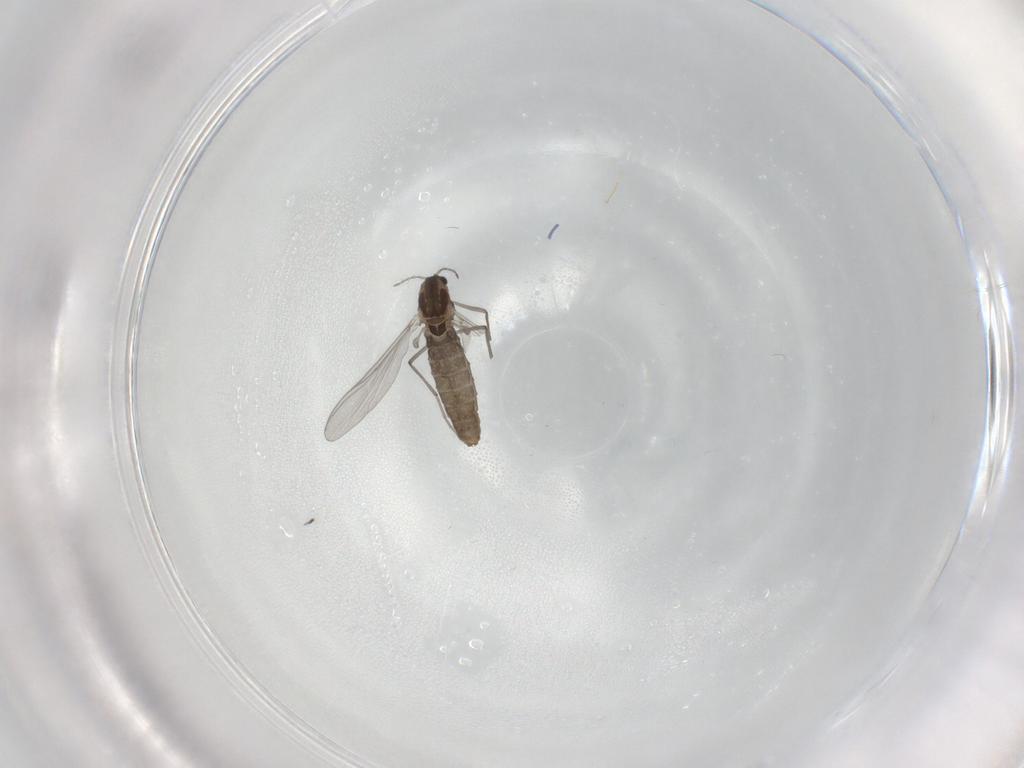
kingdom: Animalia
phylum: Arthropoda
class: Insecta
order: Diptera
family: Chironomidae
